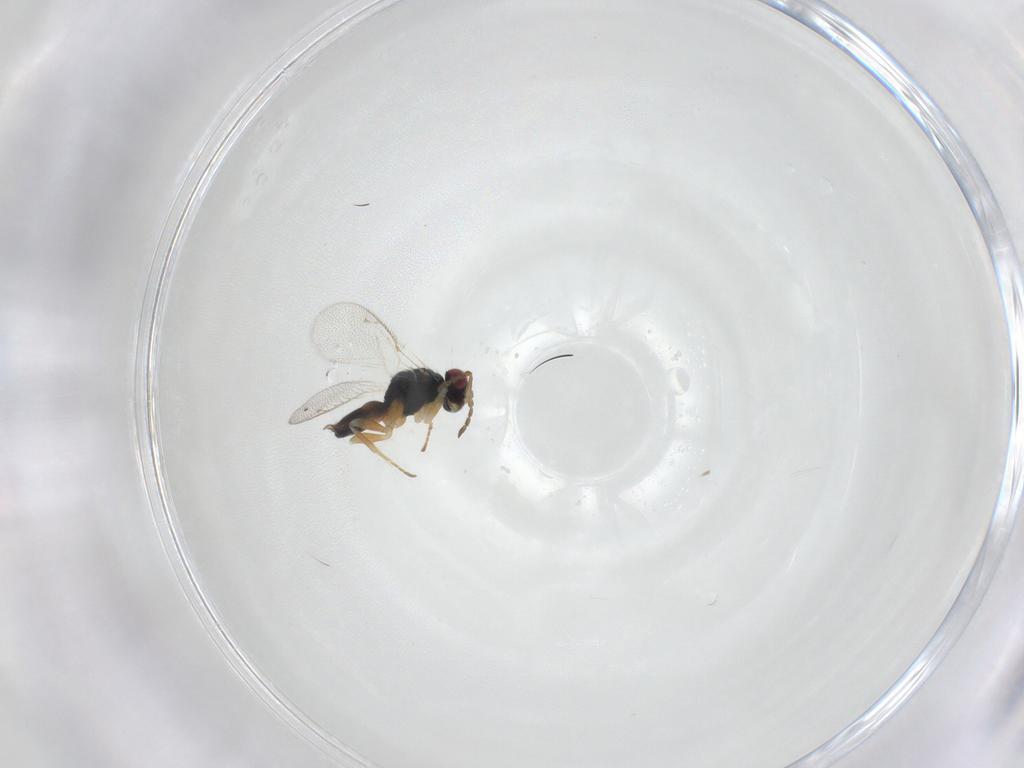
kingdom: Animalia
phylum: Arthropoda
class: Insecta
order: Hymenoptera
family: Eulophidae
